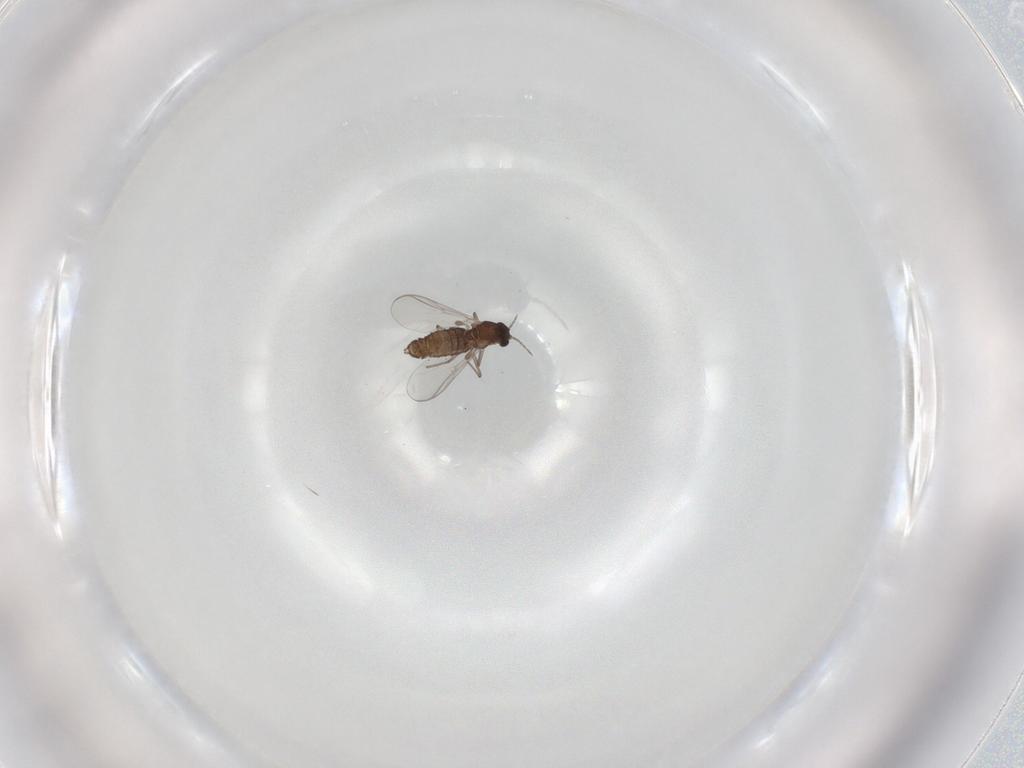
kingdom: Animalia
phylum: Arthropoda
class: Insecta
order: Diptera
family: Chironomidae
